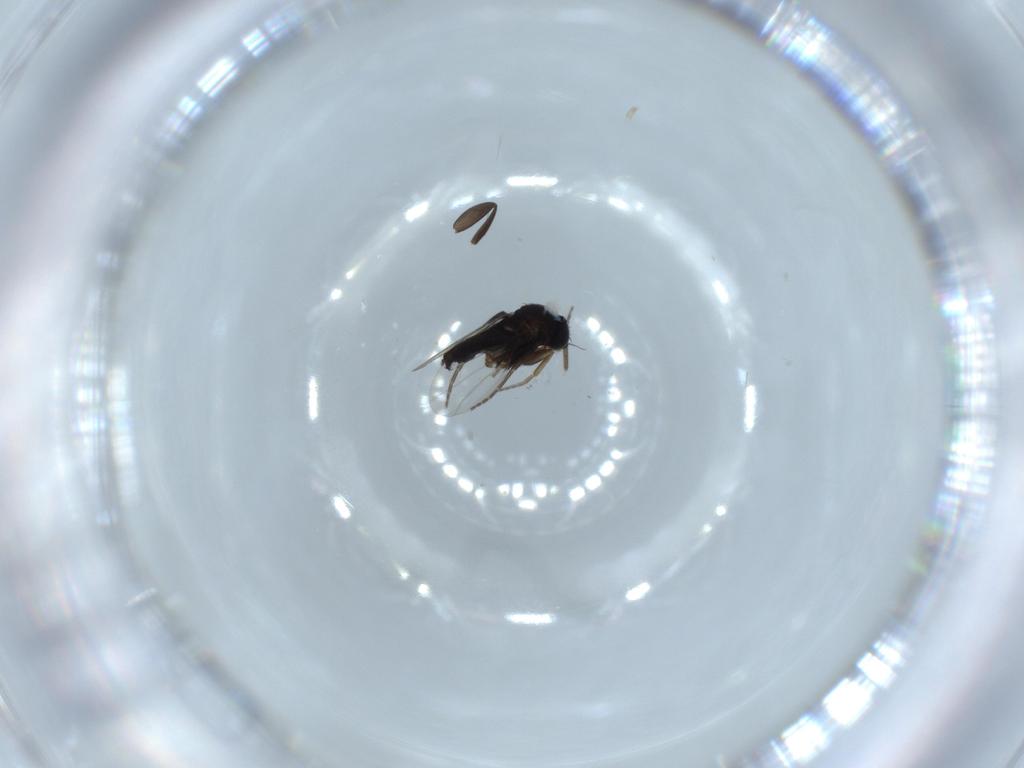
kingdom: Animalia
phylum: Arthropoda
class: Insecta
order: Diptera
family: Phoridae
